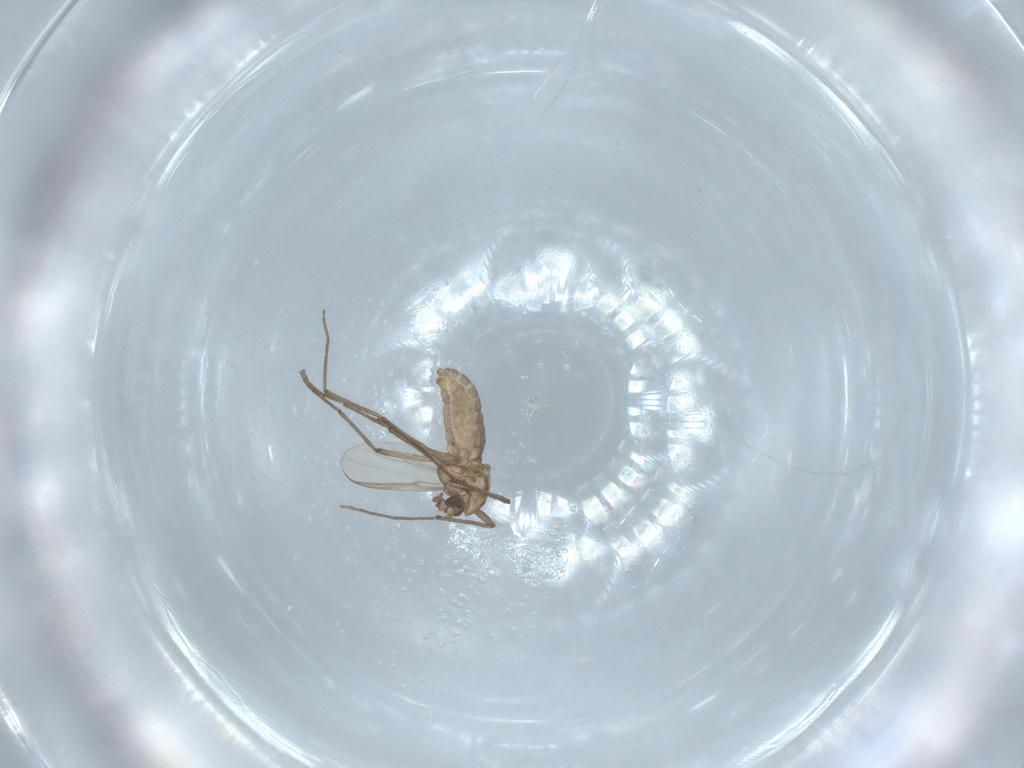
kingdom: Animalia
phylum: Arthropoda
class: Insecta
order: Diptera
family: Chironomidae
